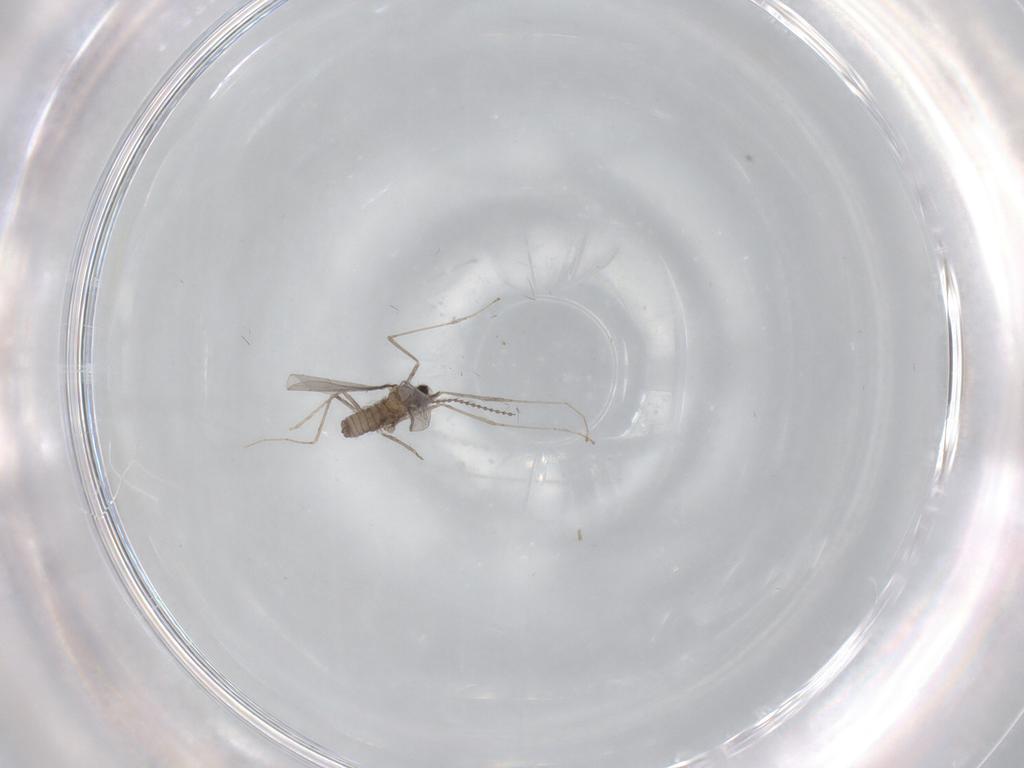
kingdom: Animalia
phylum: Arthropoda
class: Insecta
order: Diptera
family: Cecidomyiidae
